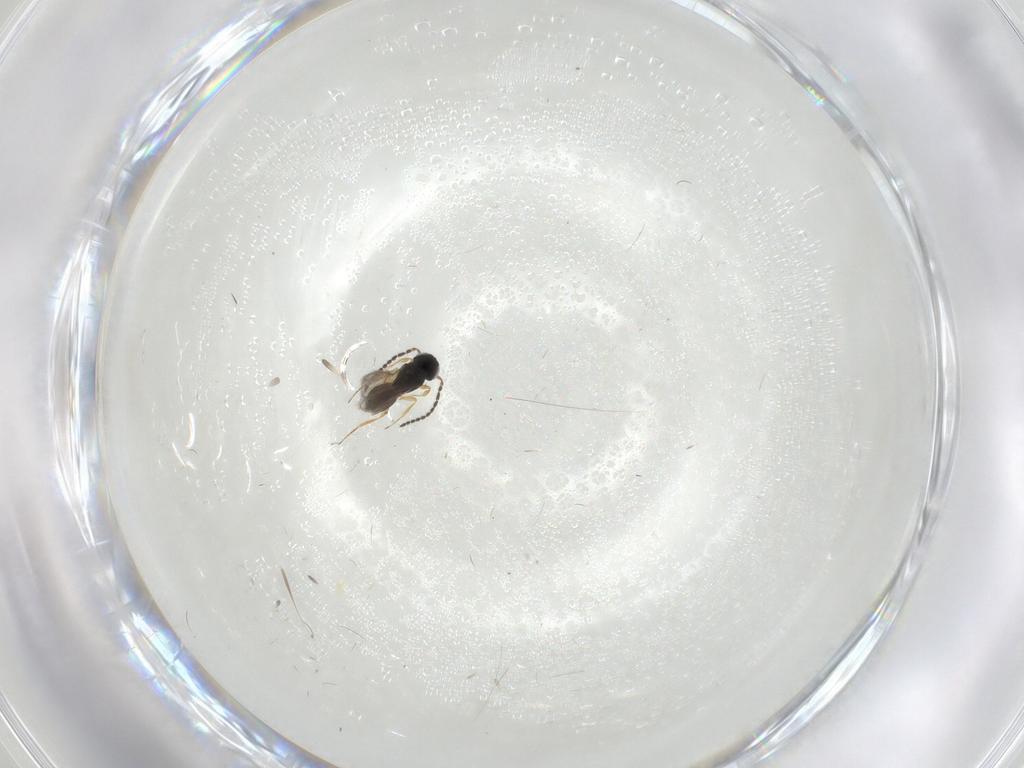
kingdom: Animalia
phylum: Arthropoda
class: Insecta
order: Hymenoptera
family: Scelionidae
